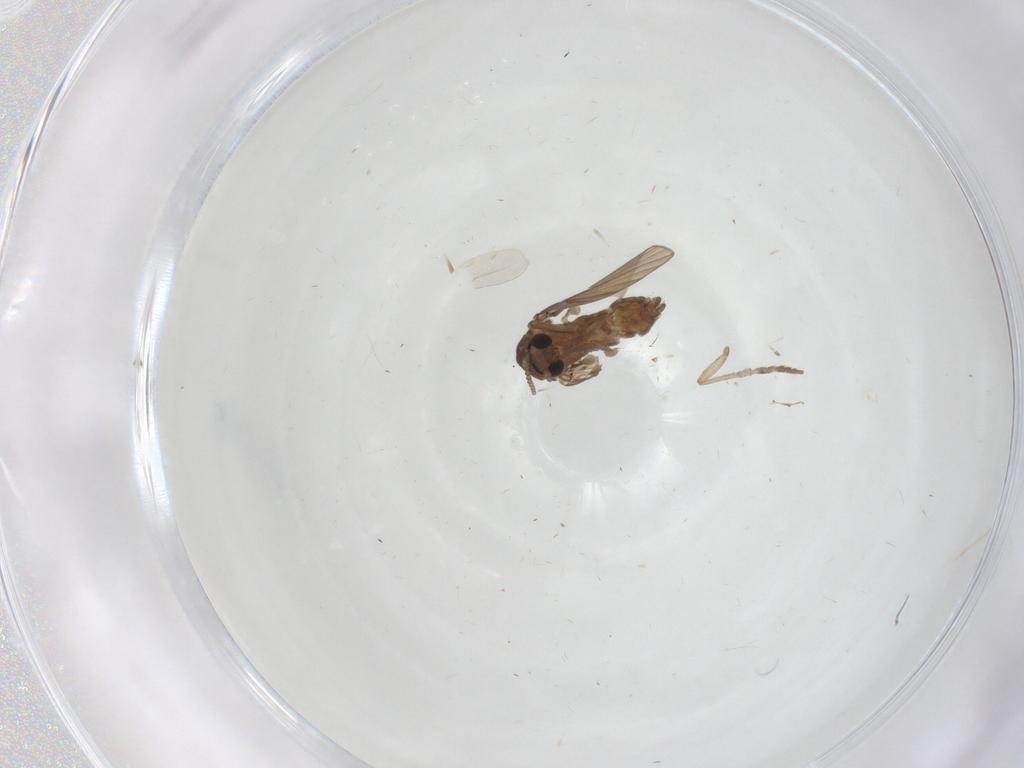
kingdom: Animalia
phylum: Arthropoda
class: Insecta
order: Diptera
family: Psychodidae
